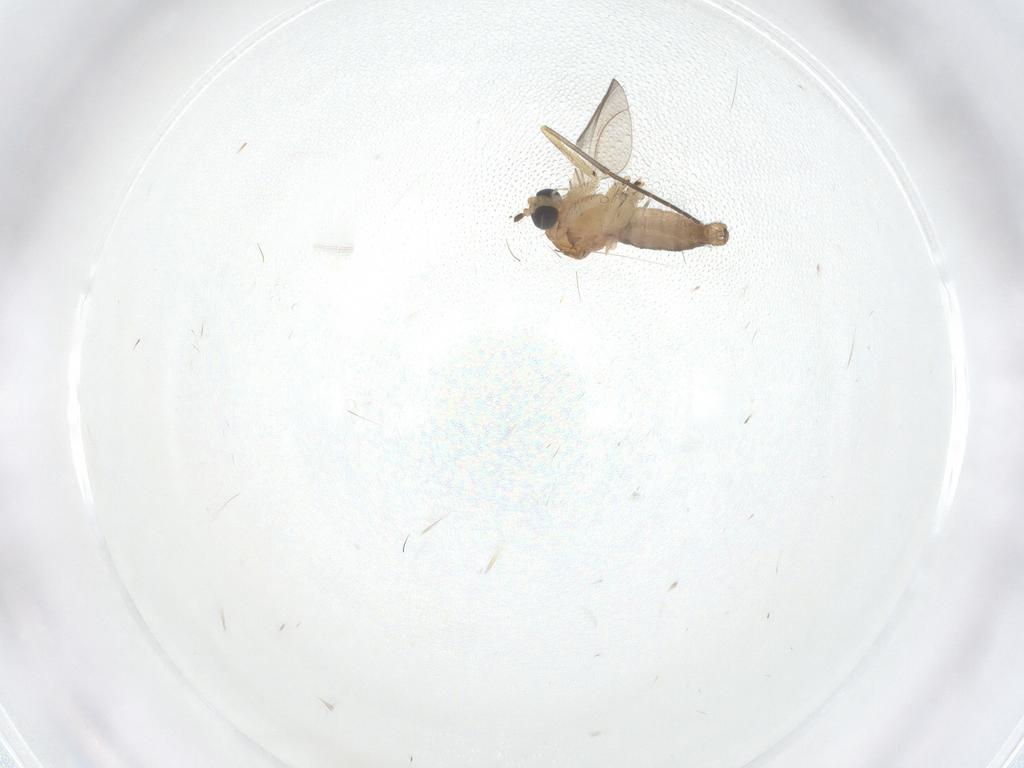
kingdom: Animalia
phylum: Arthropoda
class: Insecta
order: Diptera
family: Sciaridae
